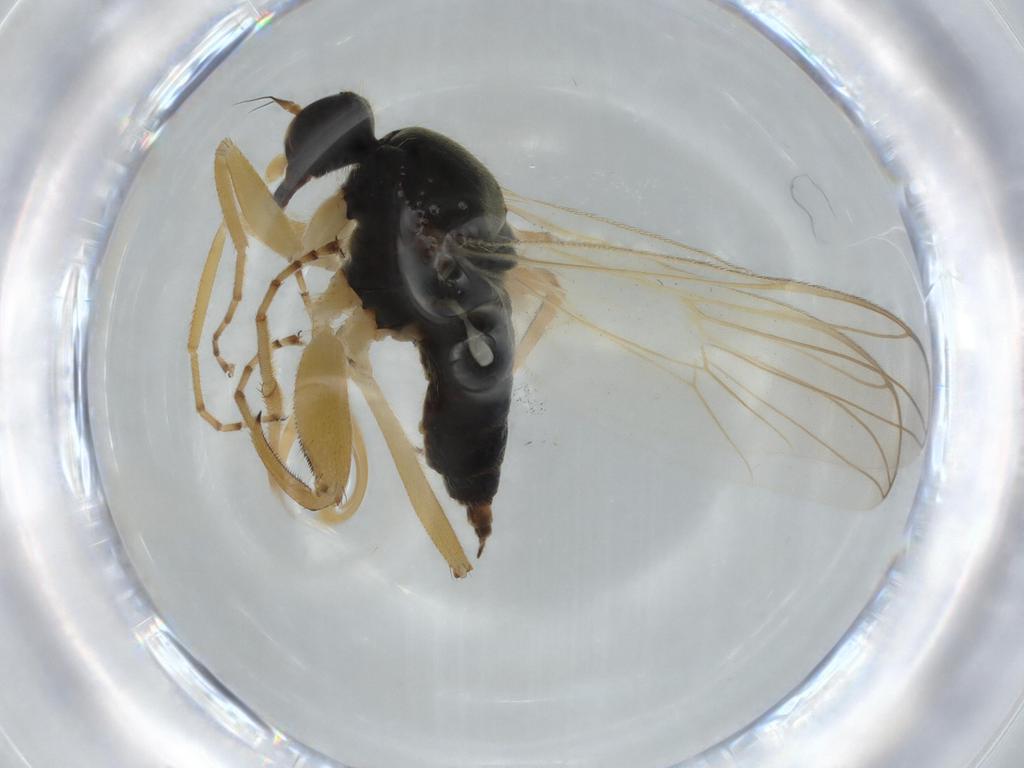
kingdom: Animalia
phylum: Arthropoda
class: Insecta
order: Diptera
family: Hybotidae
